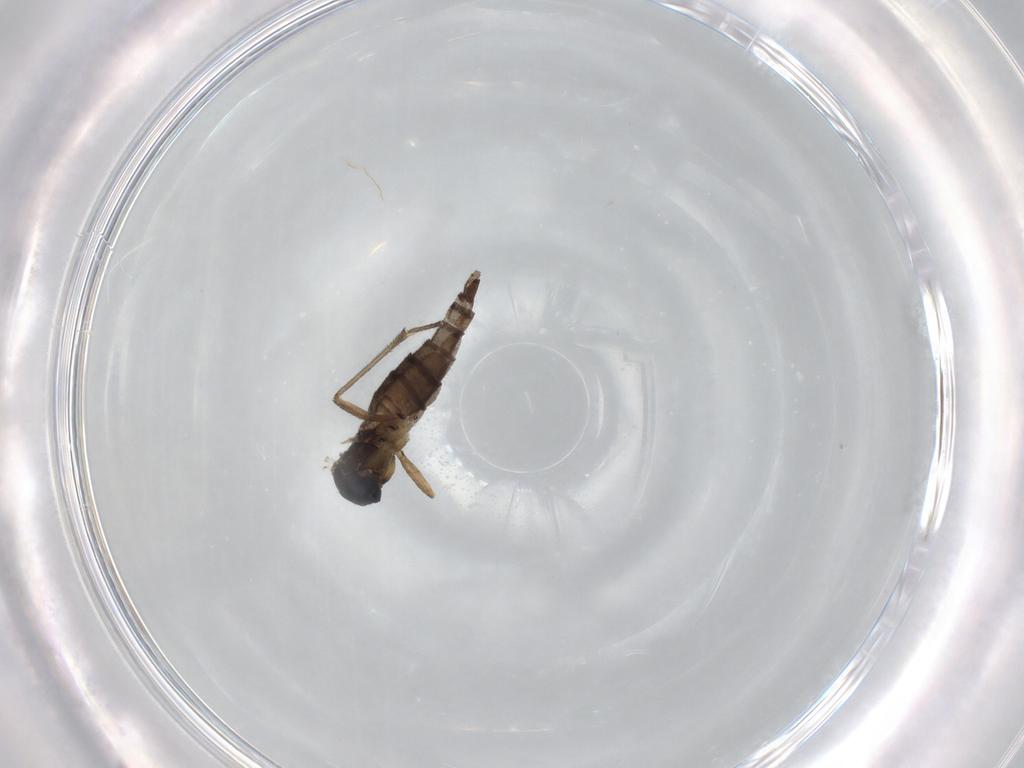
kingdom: Animalia
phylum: Arthropoda
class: Insecta
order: Diptera
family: Sciaridae
